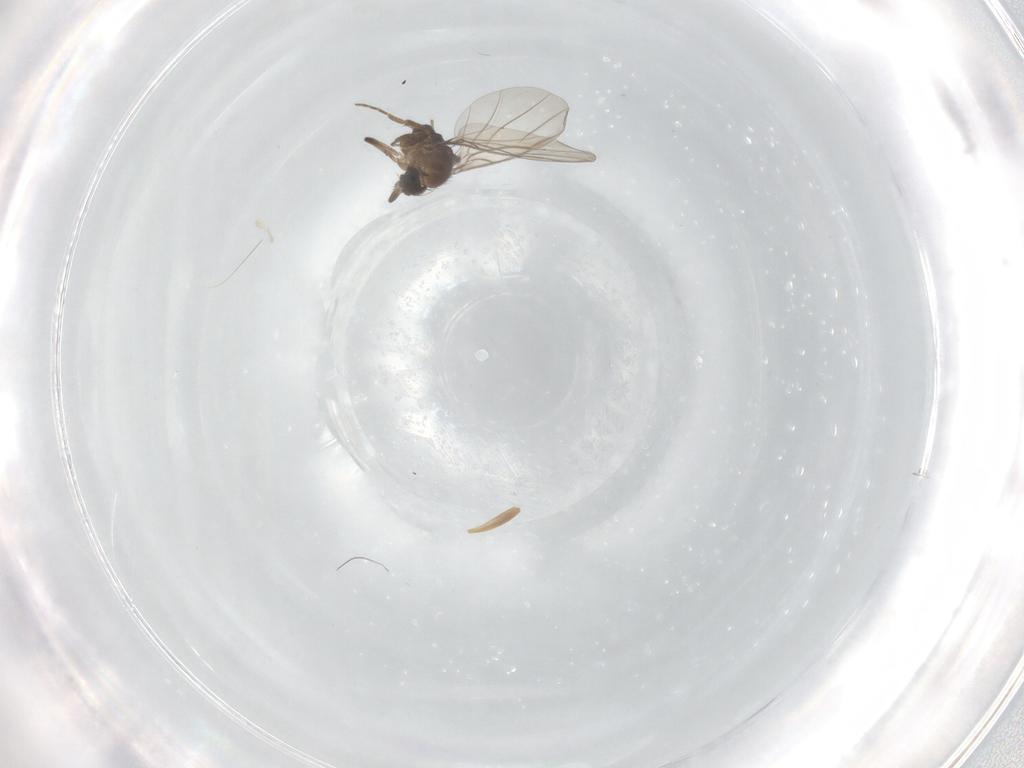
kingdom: Animalia
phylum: Arthropoda
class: Insecta
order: Diptera
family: Phoridae
